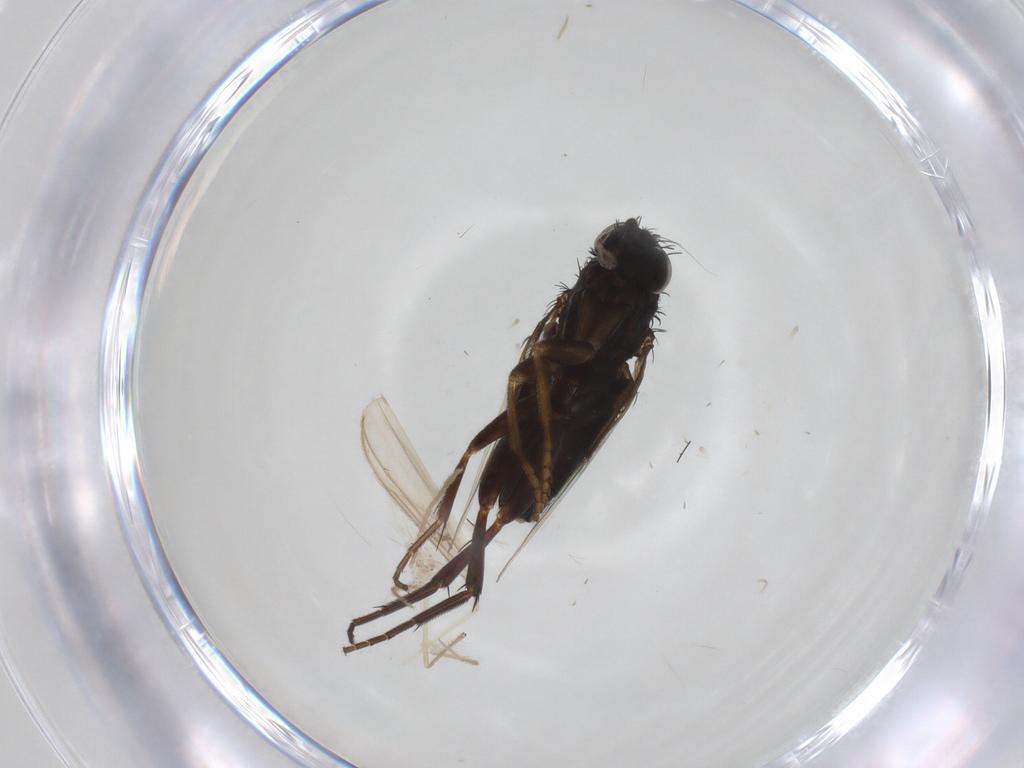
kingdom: Animalia
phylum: Arthropoda
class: Insecta
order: Diptera
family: Phoridae
